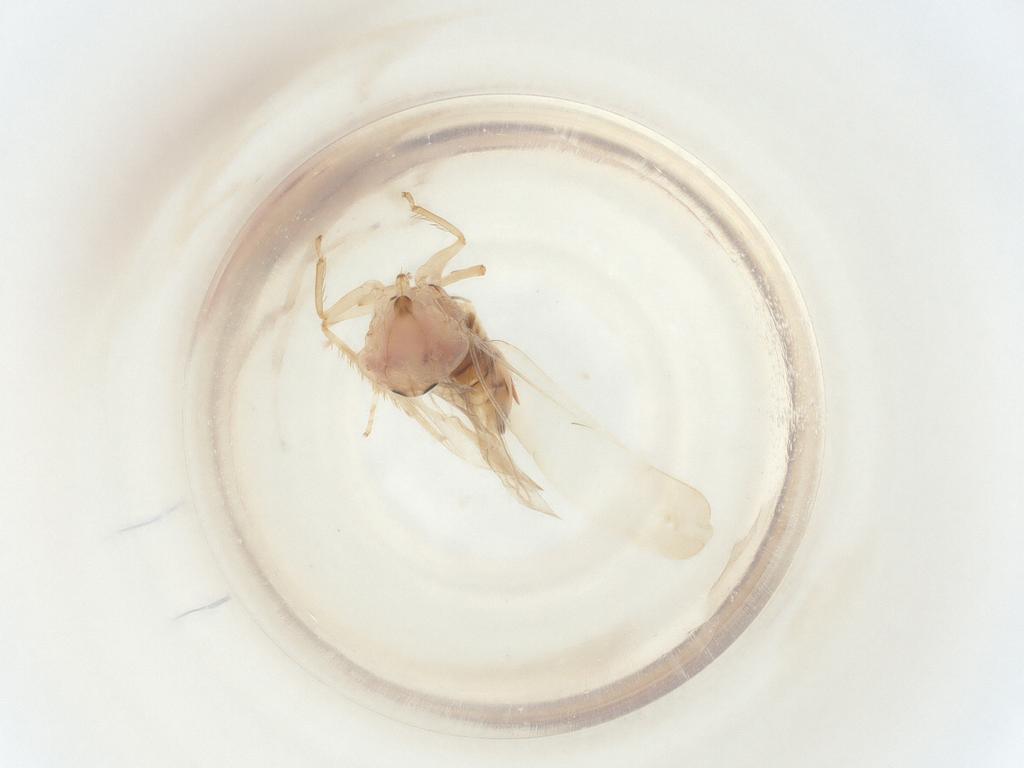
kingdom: Animalia
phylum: Arthropoda
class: Insecta
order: Hemiptera
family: Cicadellidae
